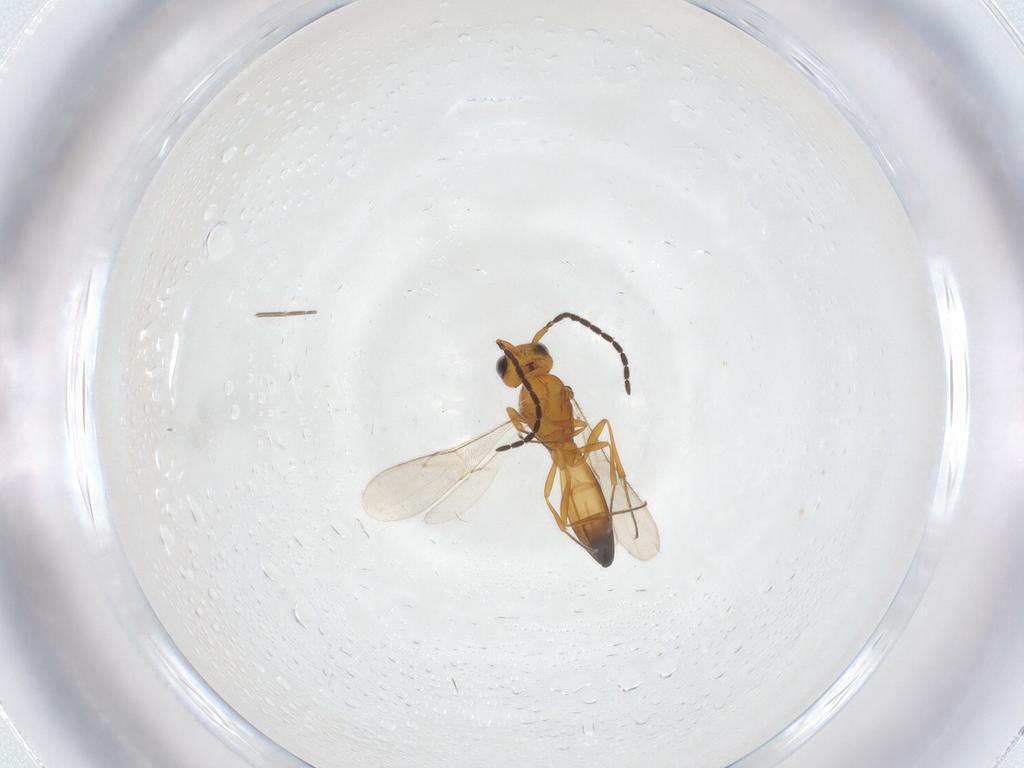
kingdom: Animalia
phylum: Arthropoda
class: Insecta
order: Diptera
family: Mycetophilidae
